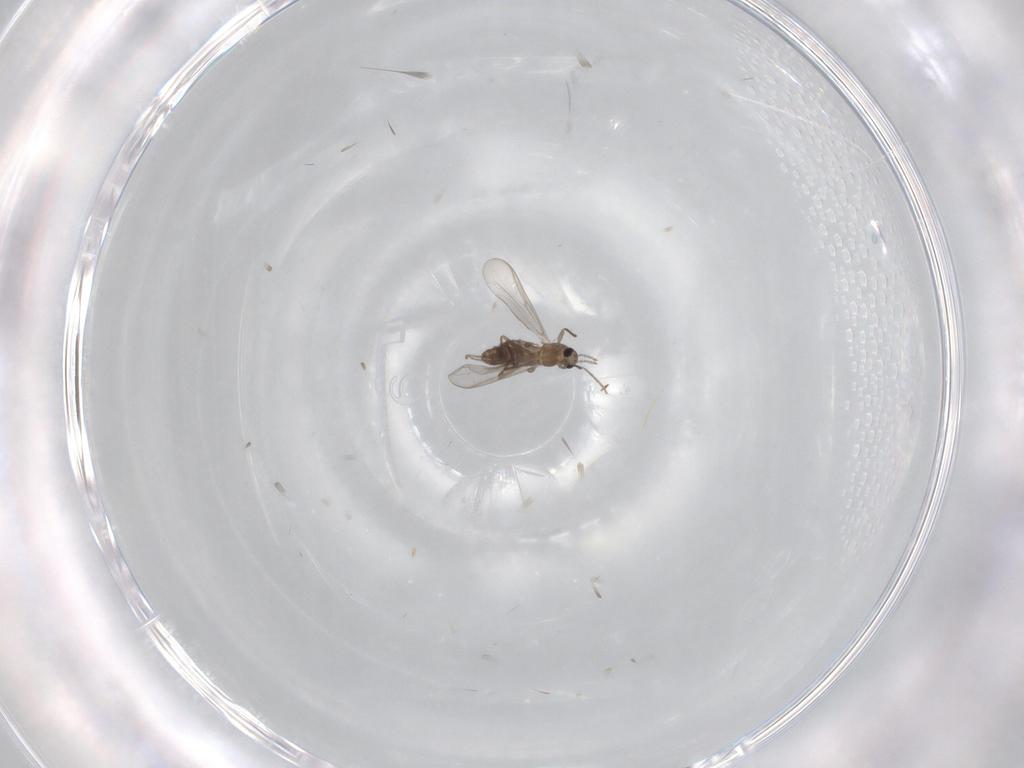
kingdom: Animalia
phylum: Arthropoda
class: Insecta
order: Diptera
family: Chironomidae
